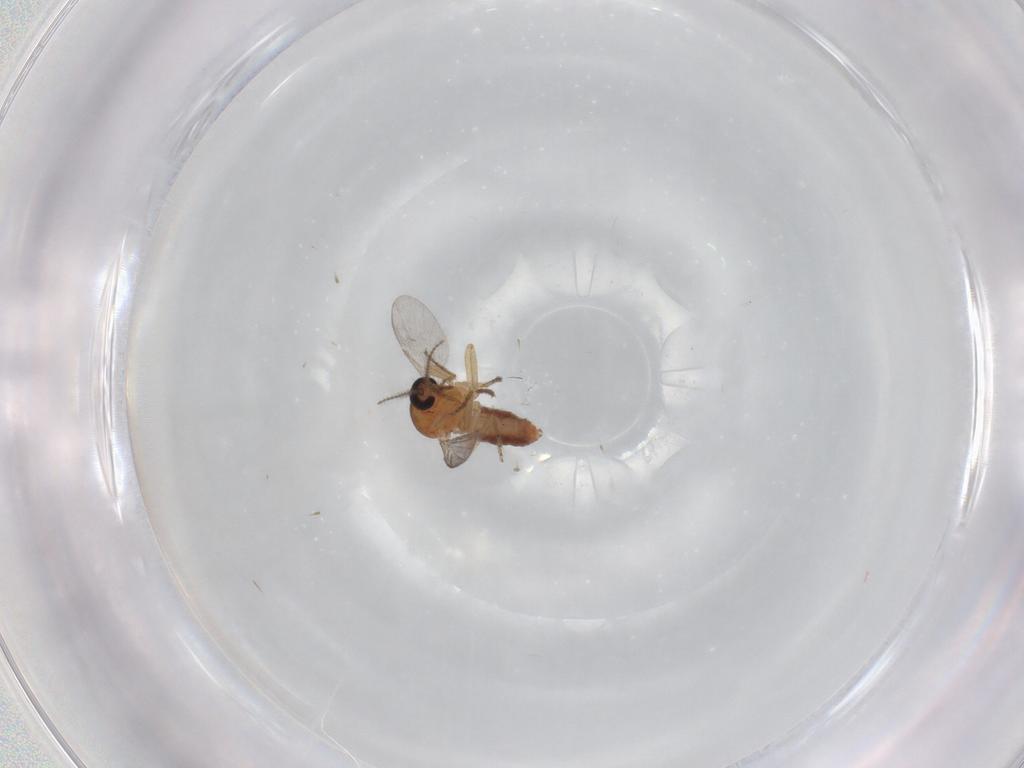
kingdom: Animalia
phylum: Arthropoda
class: Insecta
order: Diptera
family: Ceratopogonidae
